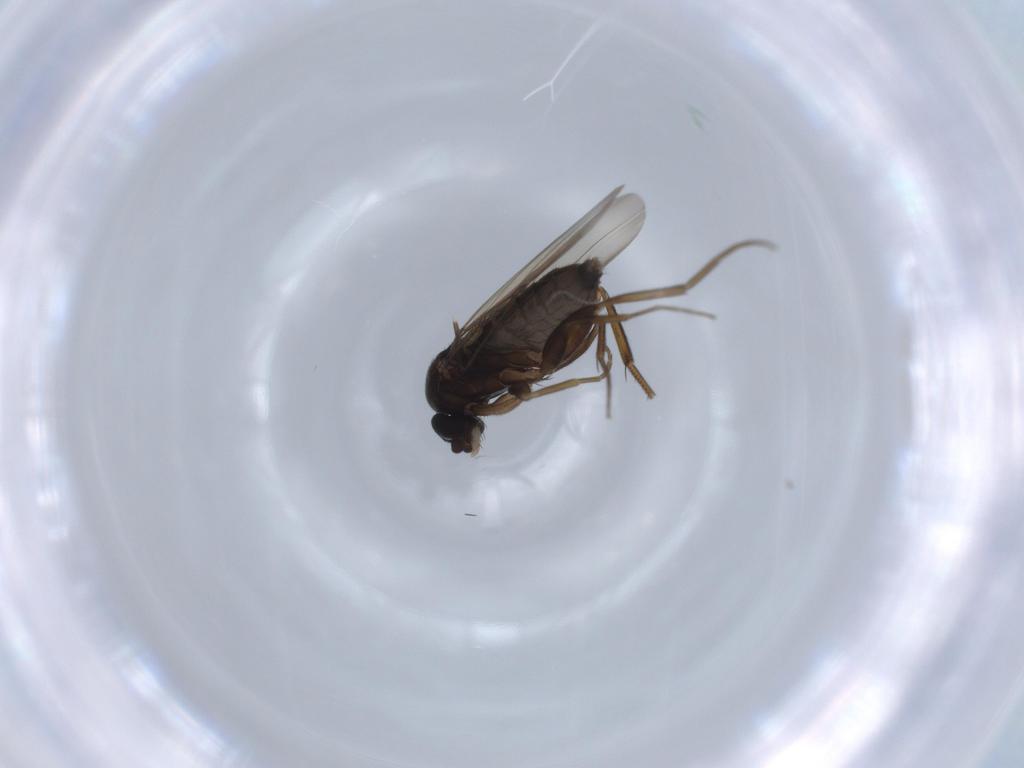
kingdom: Animalia
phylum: Arthropoda
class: Insecta
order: Diptera
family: Phoridae
